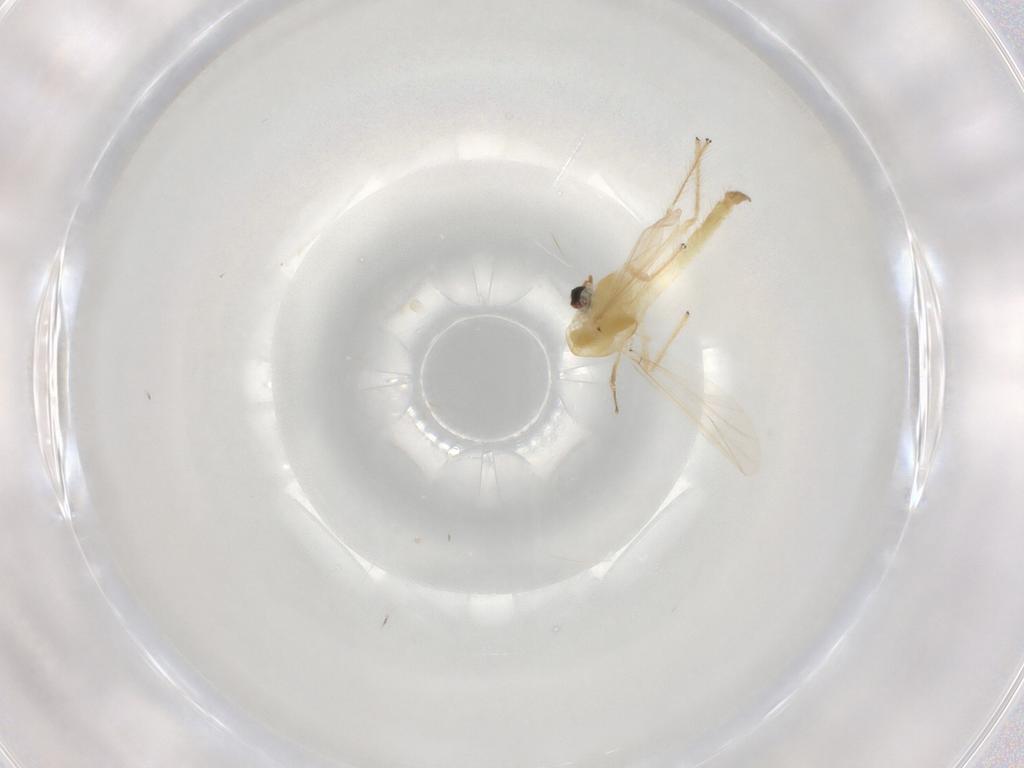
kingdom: Animalia
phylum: Arthropoda
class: Insecta
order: Diptera
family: Chironomidae
